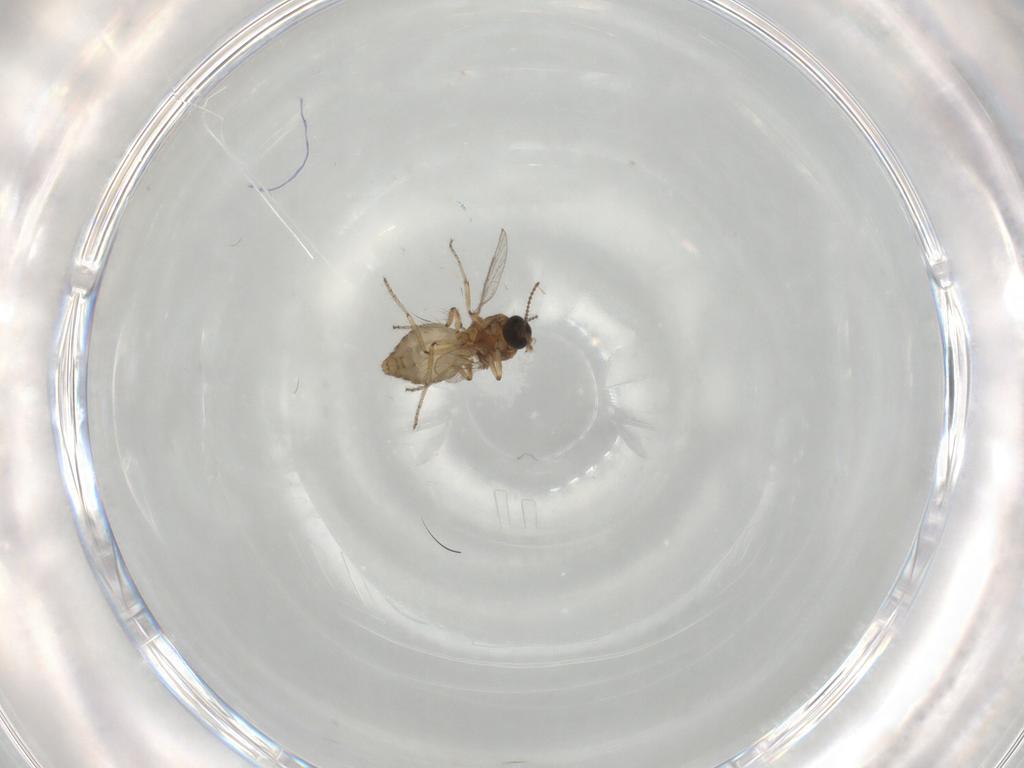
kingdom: Animalia
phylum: Arthropoda
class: Insecta
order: Diptera
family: Ceratopogonidae
